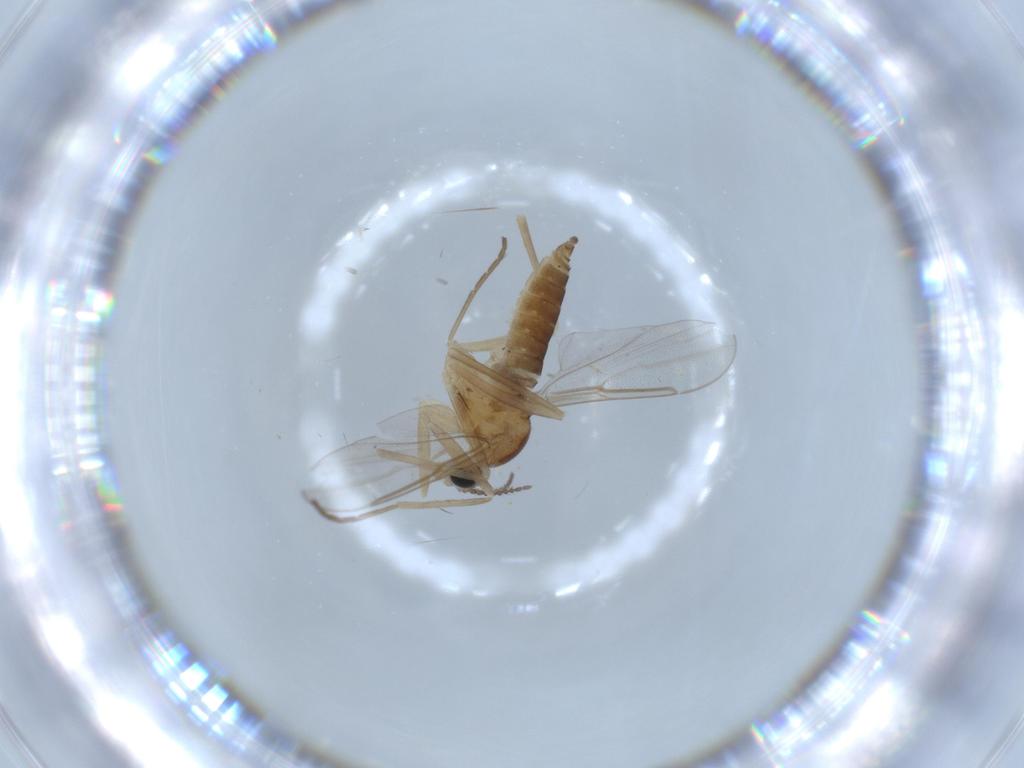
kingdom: Animalia
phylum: Arthropoda
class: Insecta
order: Diptera
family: Cecidomyiidae
